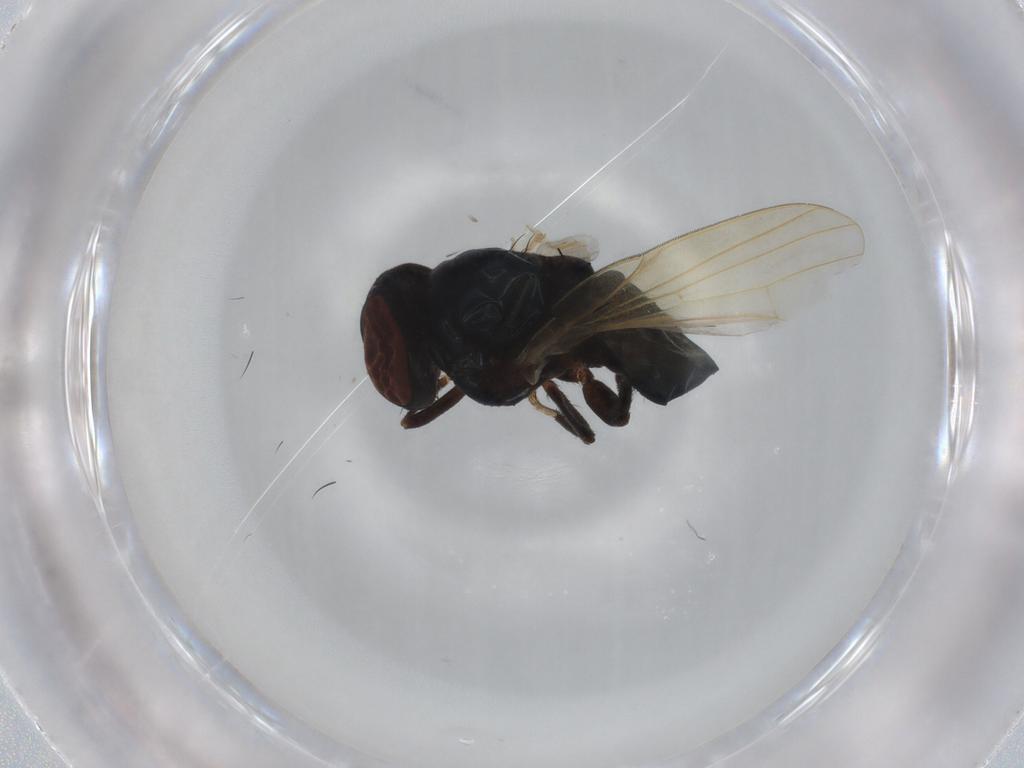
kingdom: Animalia
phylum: Arthropoda
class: Insecta
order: Diptera
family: Lonchaeidae
